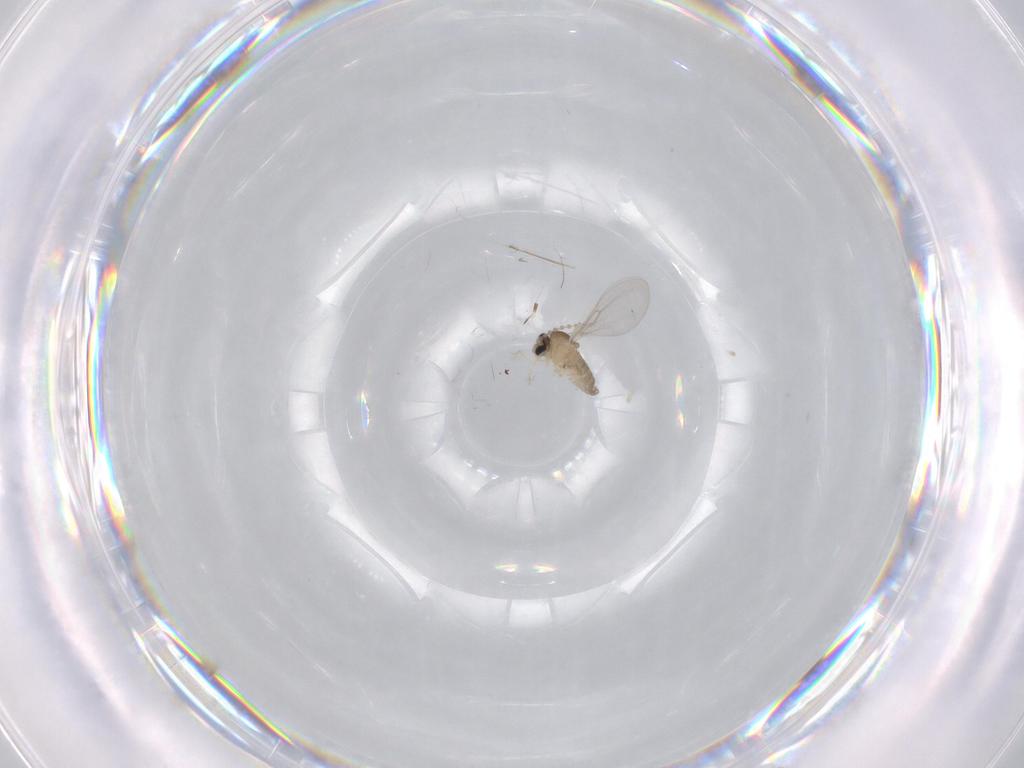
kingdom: Animalia
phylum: Arthropoda
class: Insecta
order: Diptera
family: Cecidomyiidae
